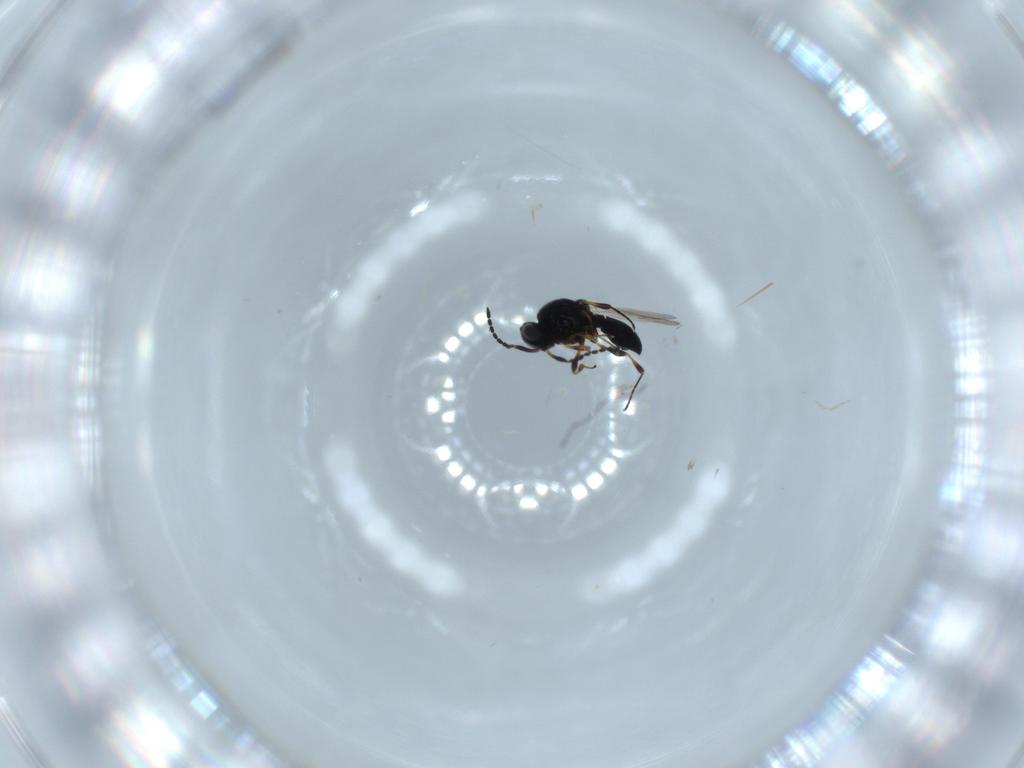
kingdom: Animalia
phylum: Arthropoda
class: Insecta
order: Hymenoptera
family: Platygastridae
